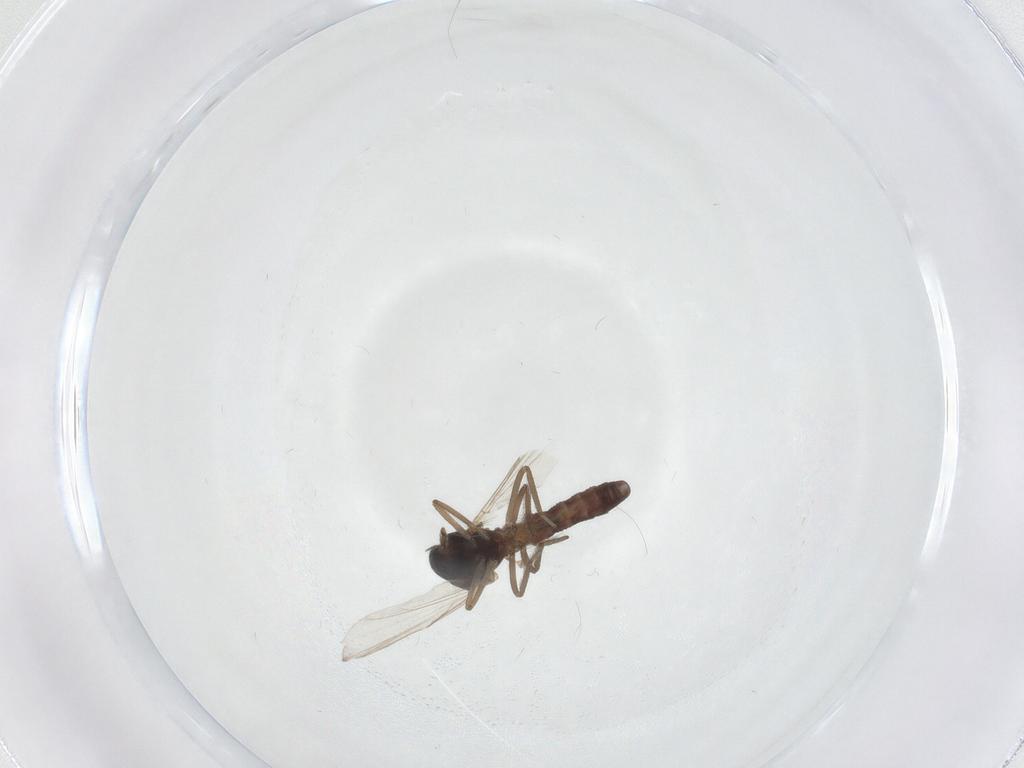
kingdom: Animalia
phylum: Arthropoda
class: Insecta
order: Diptera
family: Ceratopogonidae
